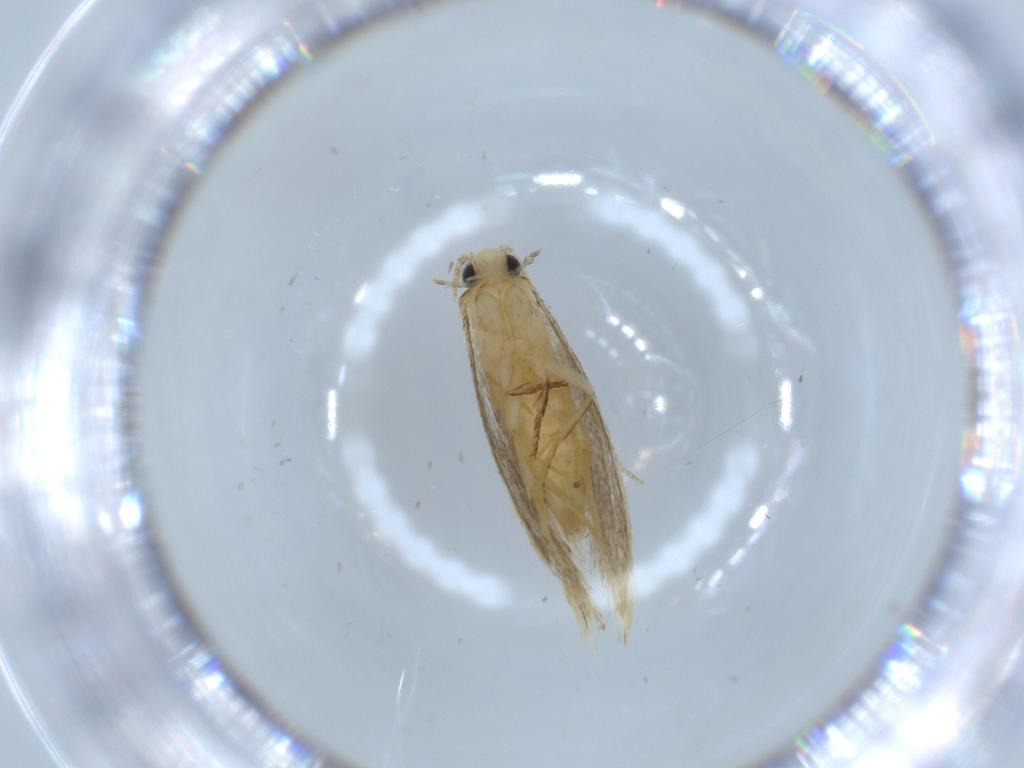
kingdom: Animalia
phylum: Arthropoda
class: Insecta
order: Lepidoptera
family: Tineidae
